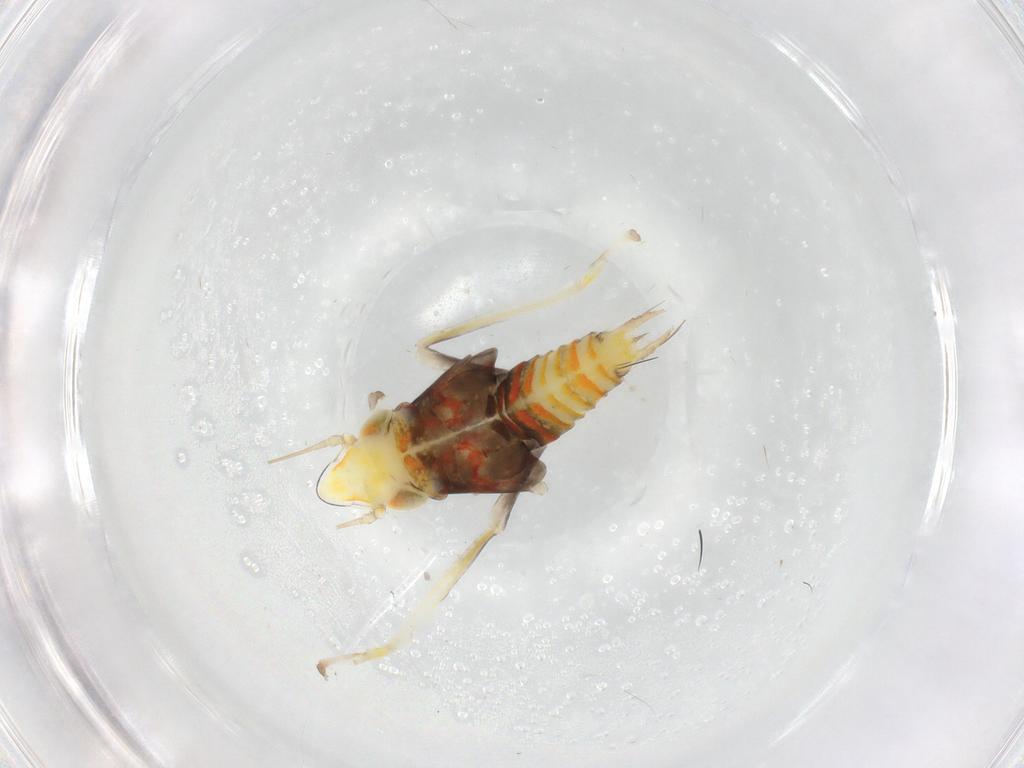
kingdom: Animalia
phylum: Arthropoda
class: Insecta
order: Hemiptera
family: Cicadellidae
